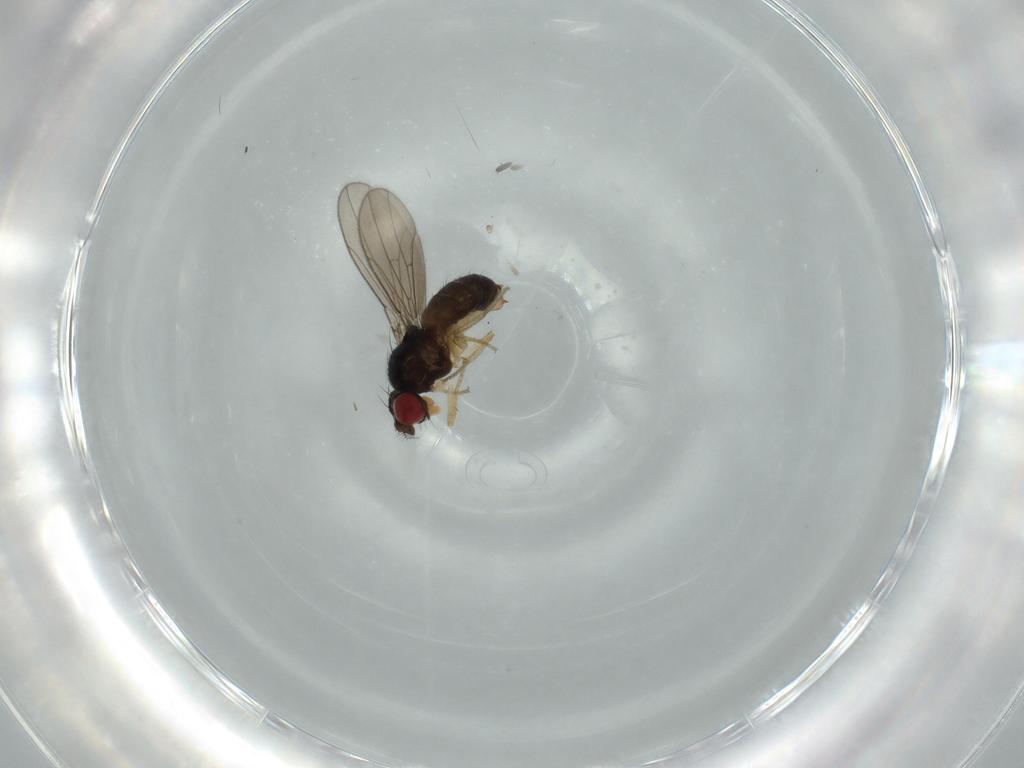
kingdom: Animalia
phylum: Arthropoda
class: Insecta
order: Diptera
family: Drosophilidae
